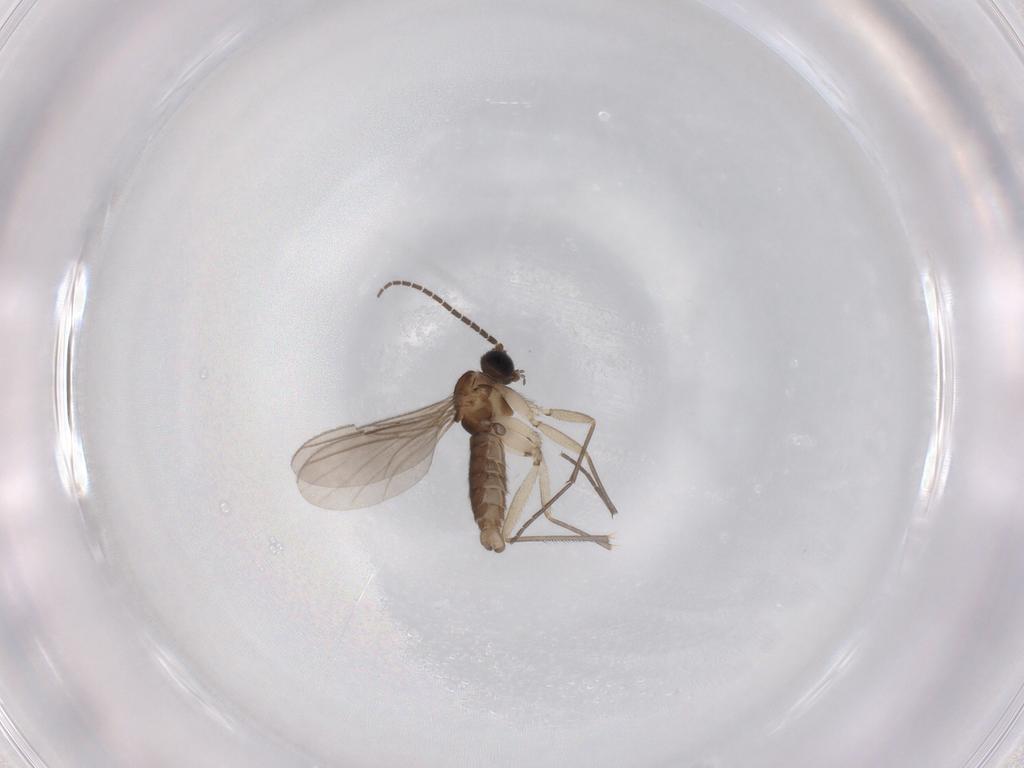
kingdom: Animalia
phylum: Arthropoda
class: Insecta
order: Diptera
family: Sciaridae
